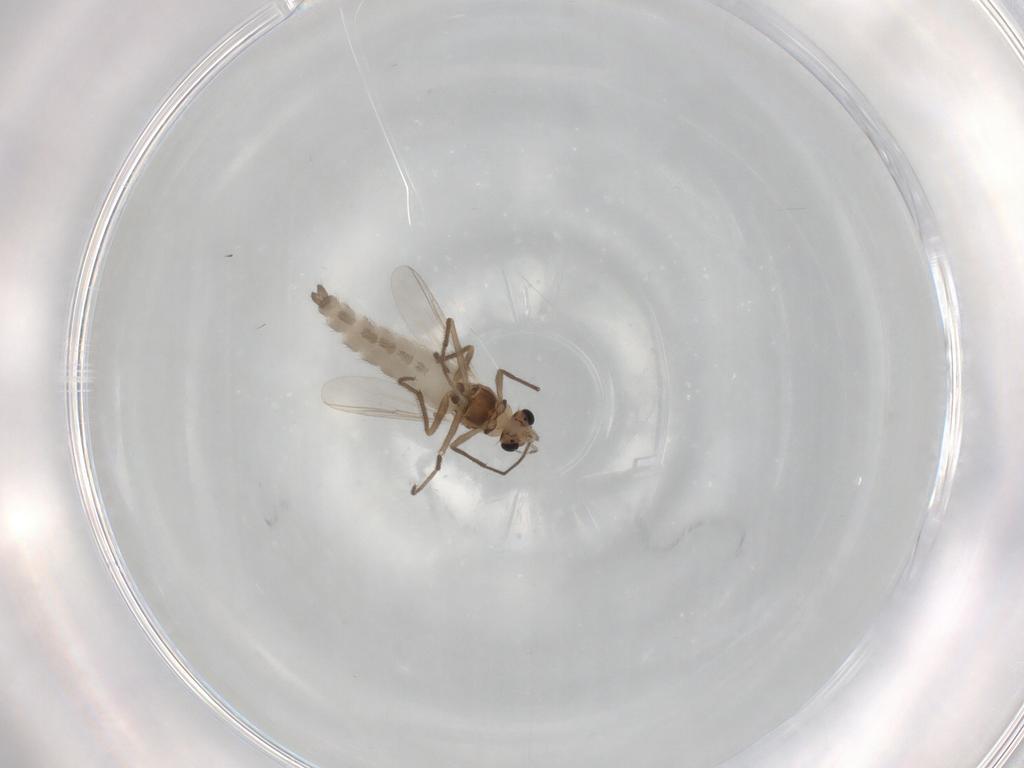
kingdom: Animalia
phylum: Arthropoda
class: Insecta
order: Diptera
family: Chironomidae
